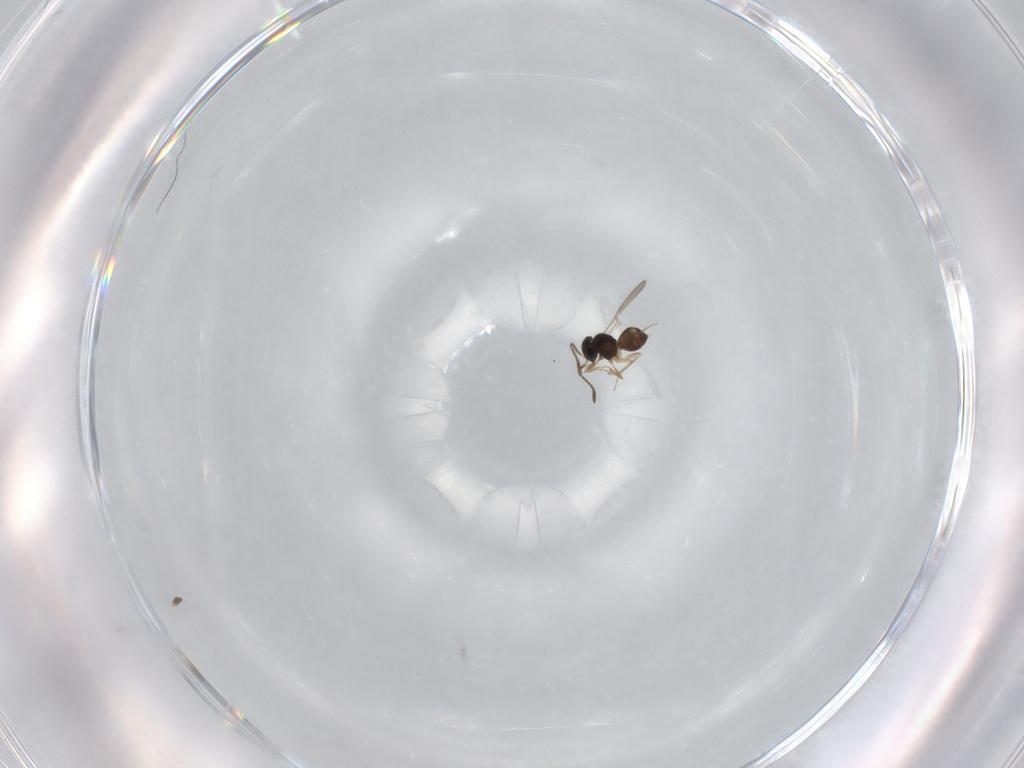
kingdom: Animalia
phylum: Arthropoda
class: Insecta
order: Hymenoptera
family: Scelionidae
